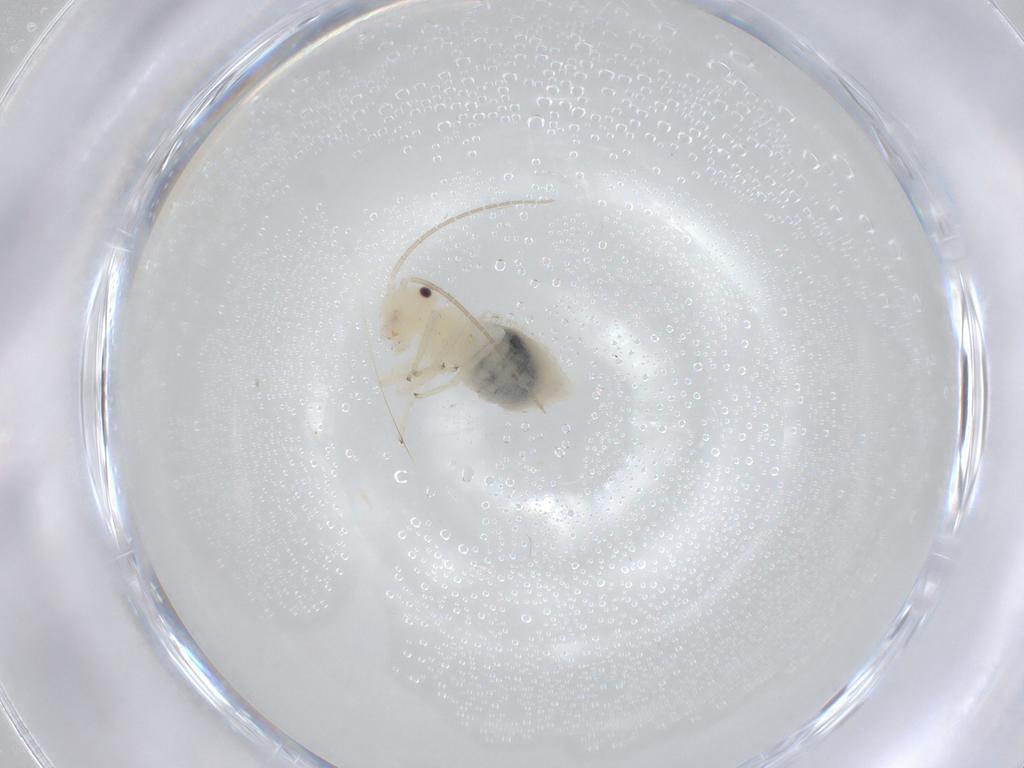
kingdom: Animalia
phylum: Arthropoda
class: Insecta
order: Psocodea
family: Philotarsidae
